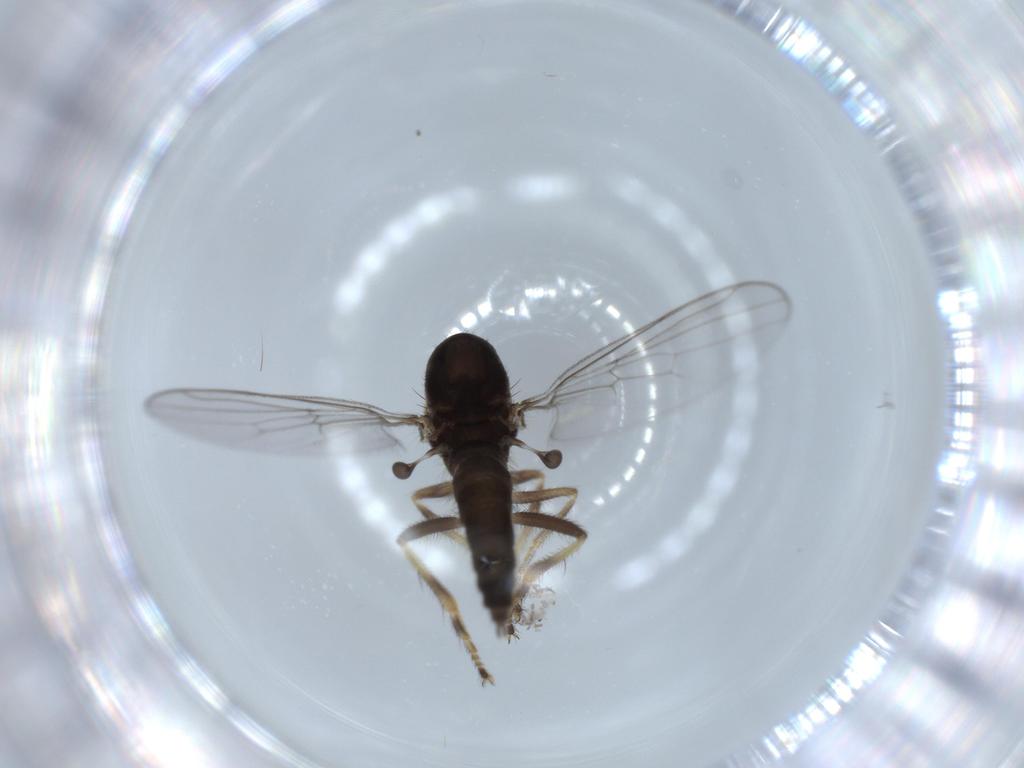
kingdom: Animalia
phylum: Arthropoda
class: Insecta
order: Diptera
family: Hybotidae
